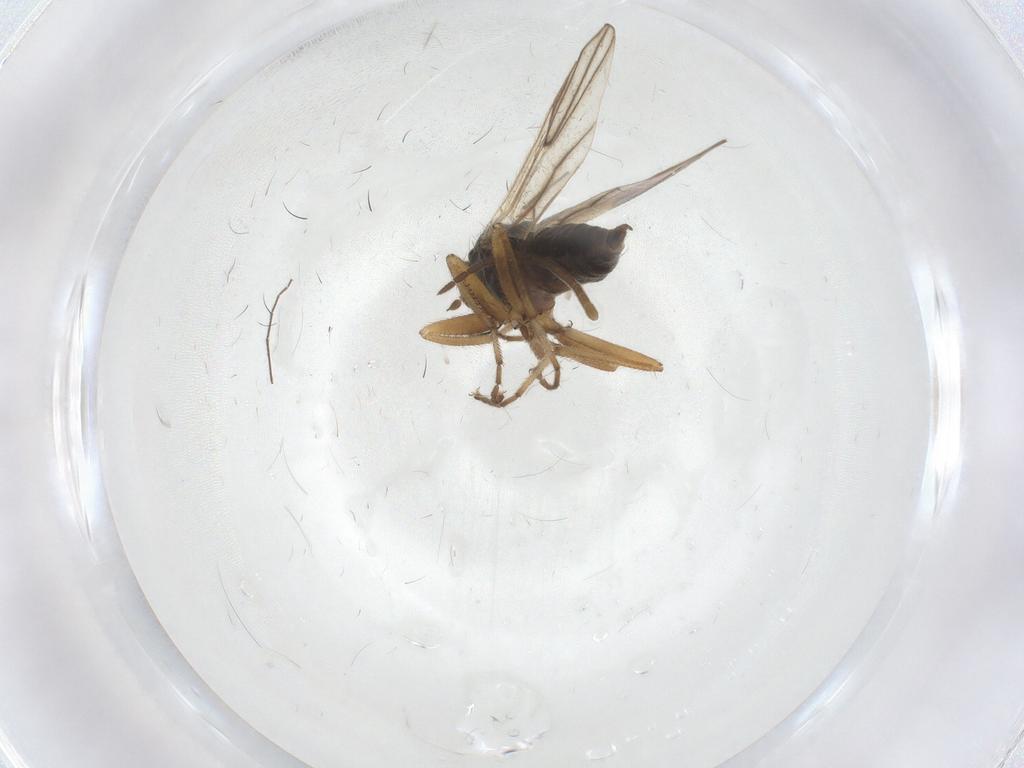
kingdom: Animalia
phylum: Arthropoda
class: Insecta
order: Diptera
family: Hybotidae
